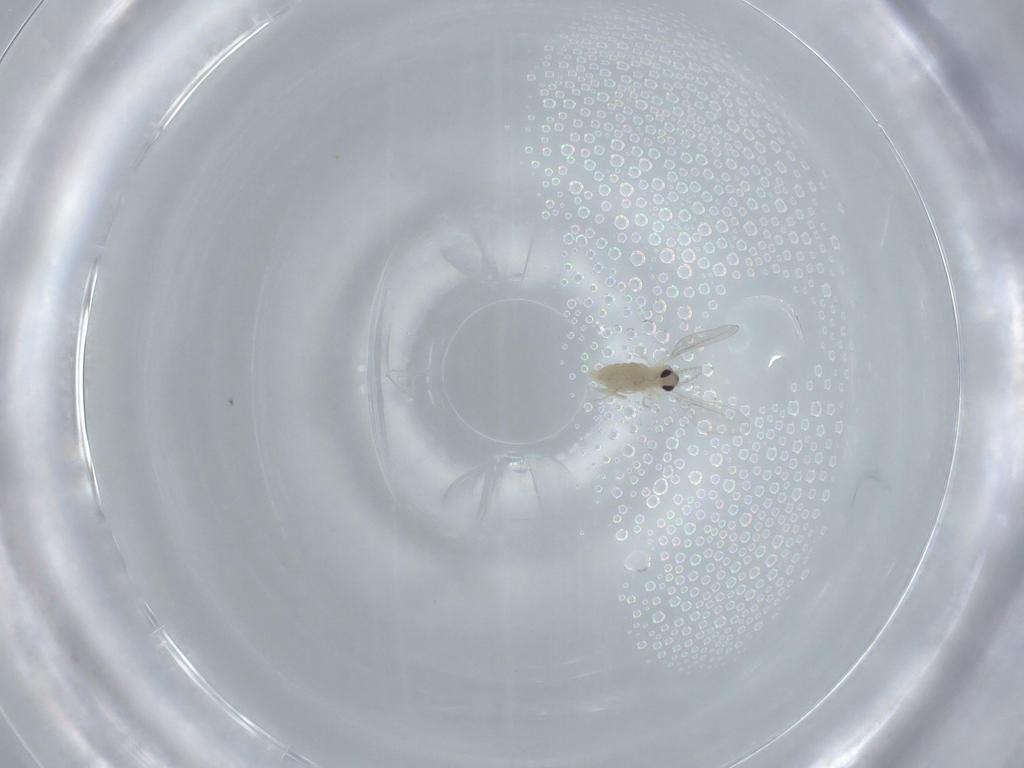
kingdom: Animalia
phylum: Arthropoda
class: Insecta
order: Diptera
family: Cecidomyiidae
